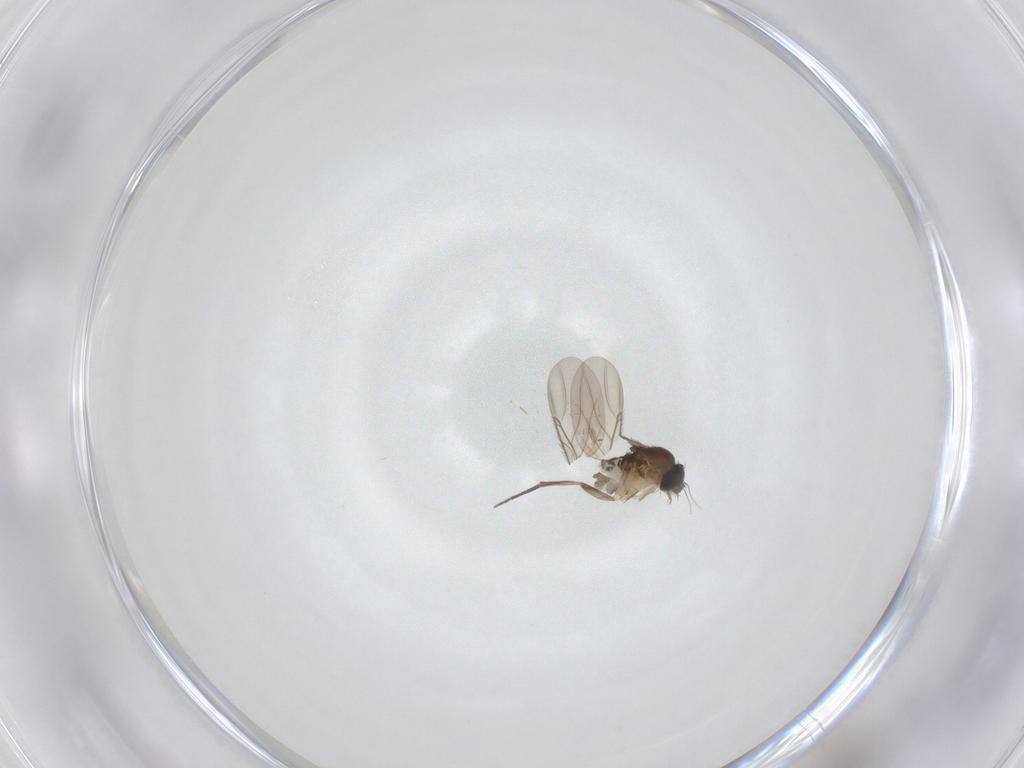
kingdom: Animalia
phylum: Arthropoda
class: Insecta
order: Diptera
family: Phoridae
